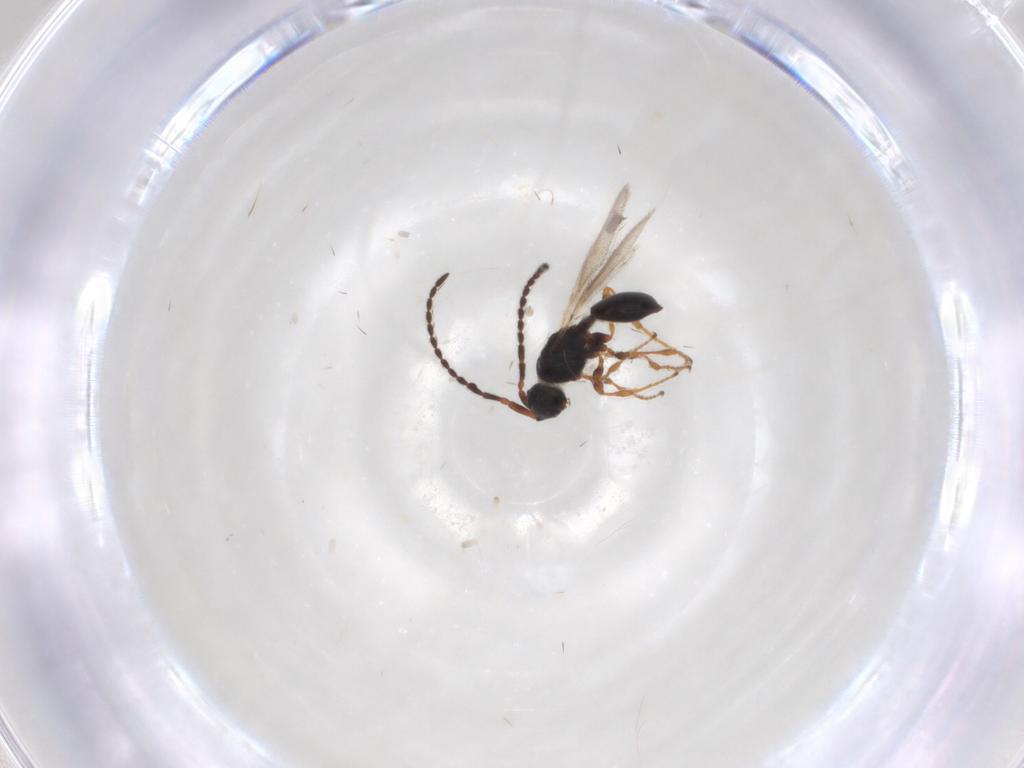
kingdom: Animalia
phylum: Arthropoda
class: Insecta
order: Hymenoptera
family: Diapriidae
